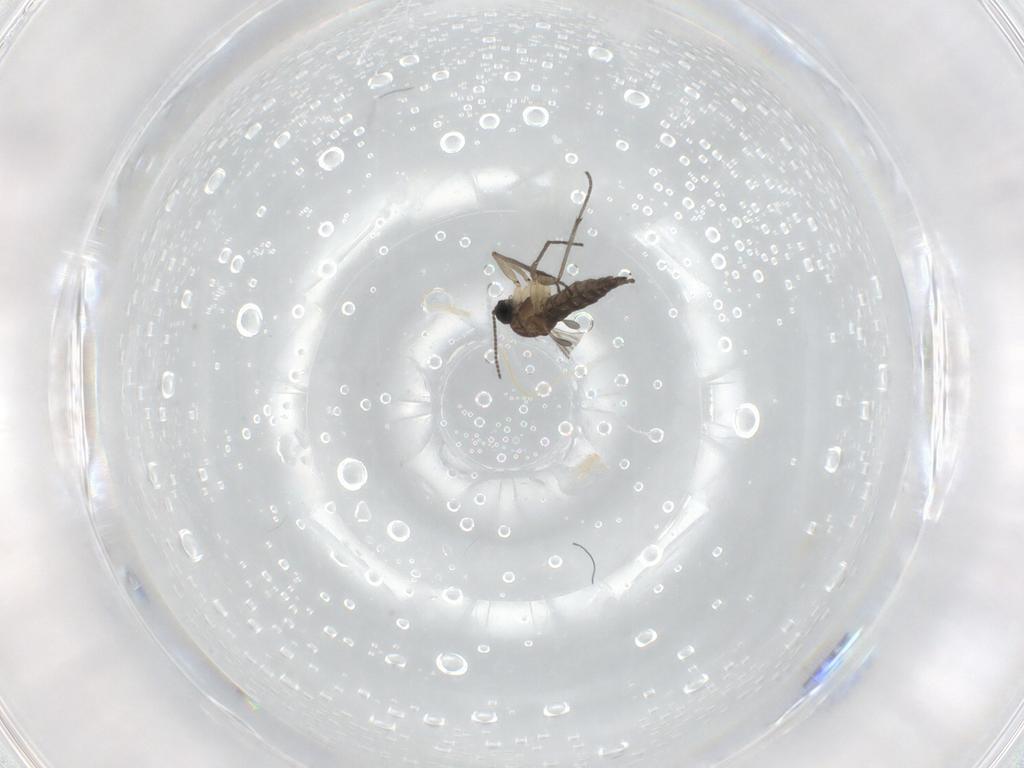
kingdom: Animalia
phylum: Arthropoda
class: Insecta
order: Diptera
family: Sciaridae
